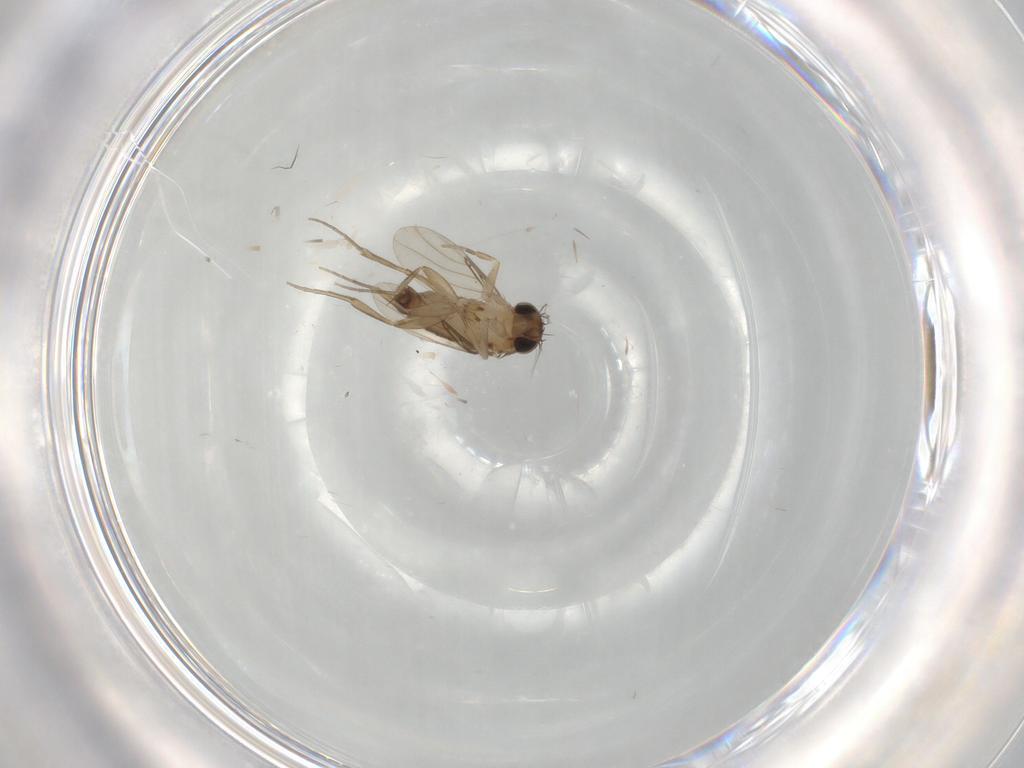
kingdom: Animalia
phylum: Arthropoda
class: Insecta
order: Diptera
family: Phoridae
